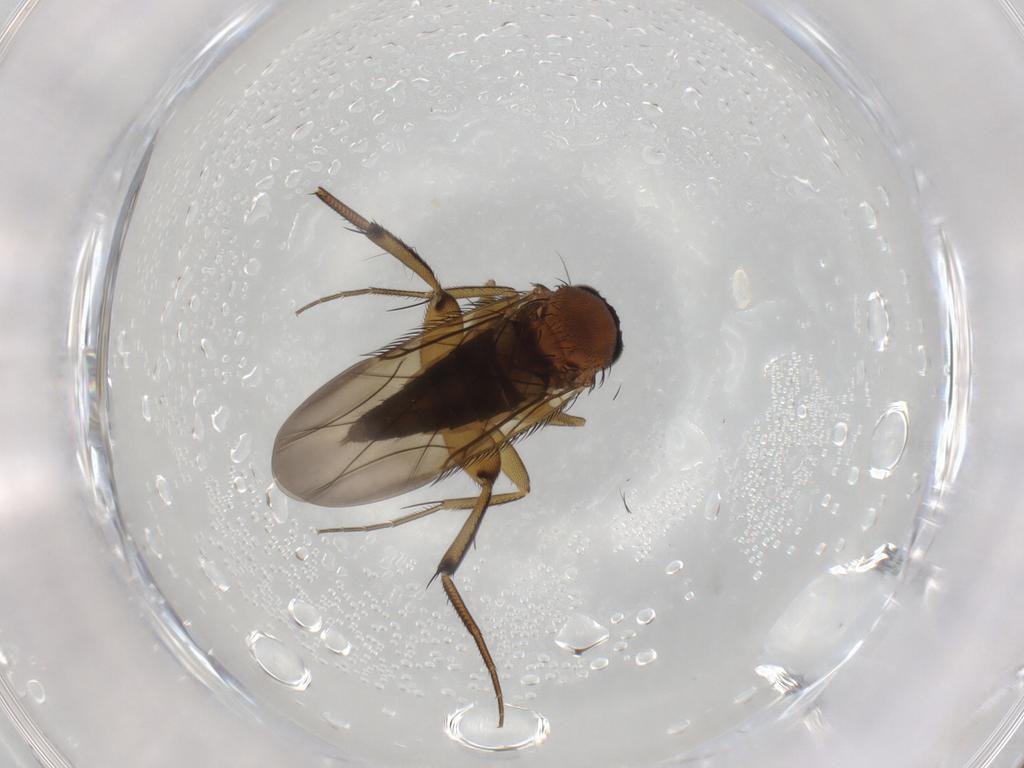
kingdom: Animalia
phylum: Arthropoda
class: Insecta
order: Diptera
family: Phoridae
